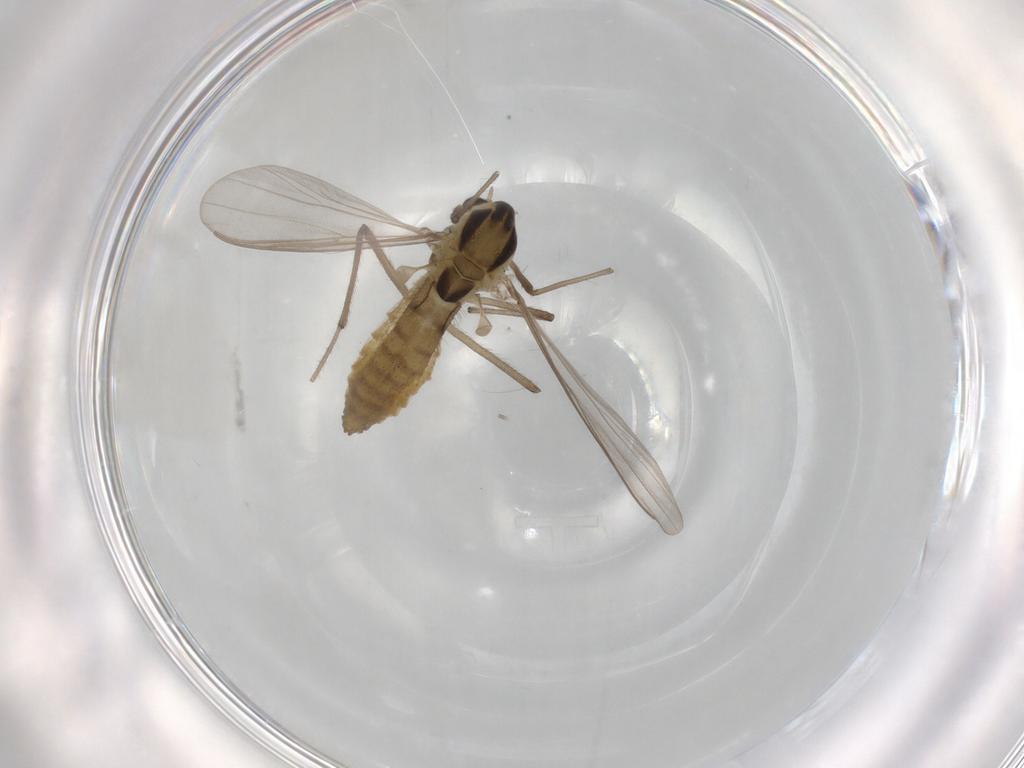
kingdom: Animalia
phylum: Arthropoda
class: Insecta
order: Diptera
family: Chironomidae
